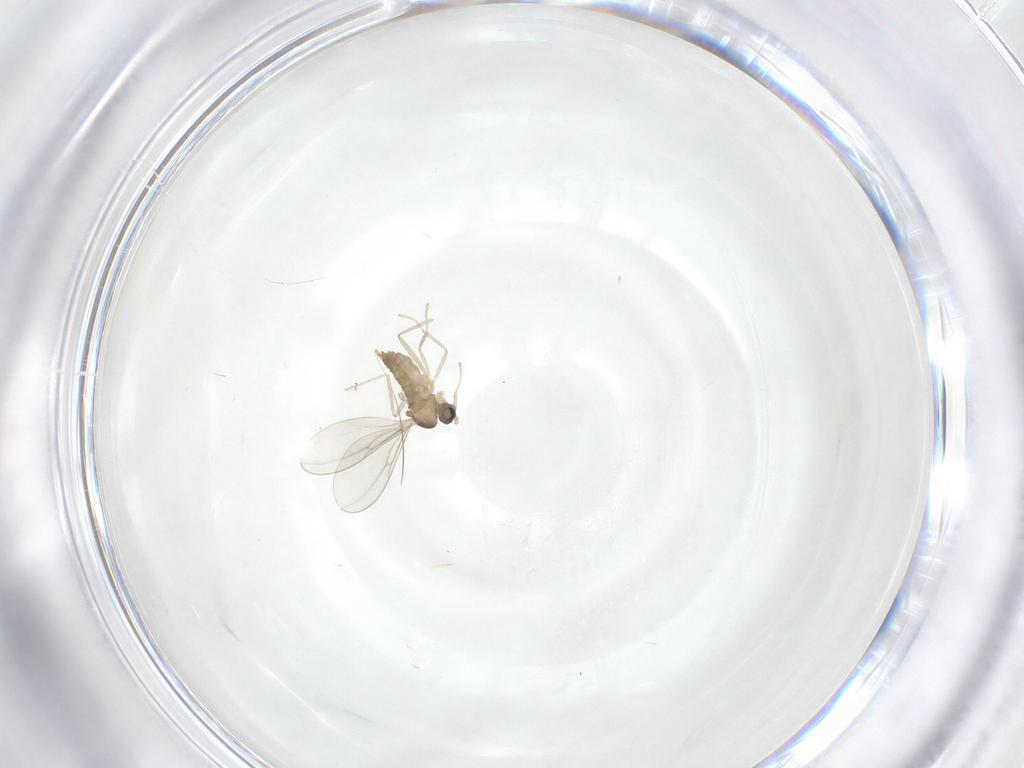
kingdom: Animalia
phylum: Arthropoda
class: Insecta
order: Diptera
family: Cecidomyiidae
